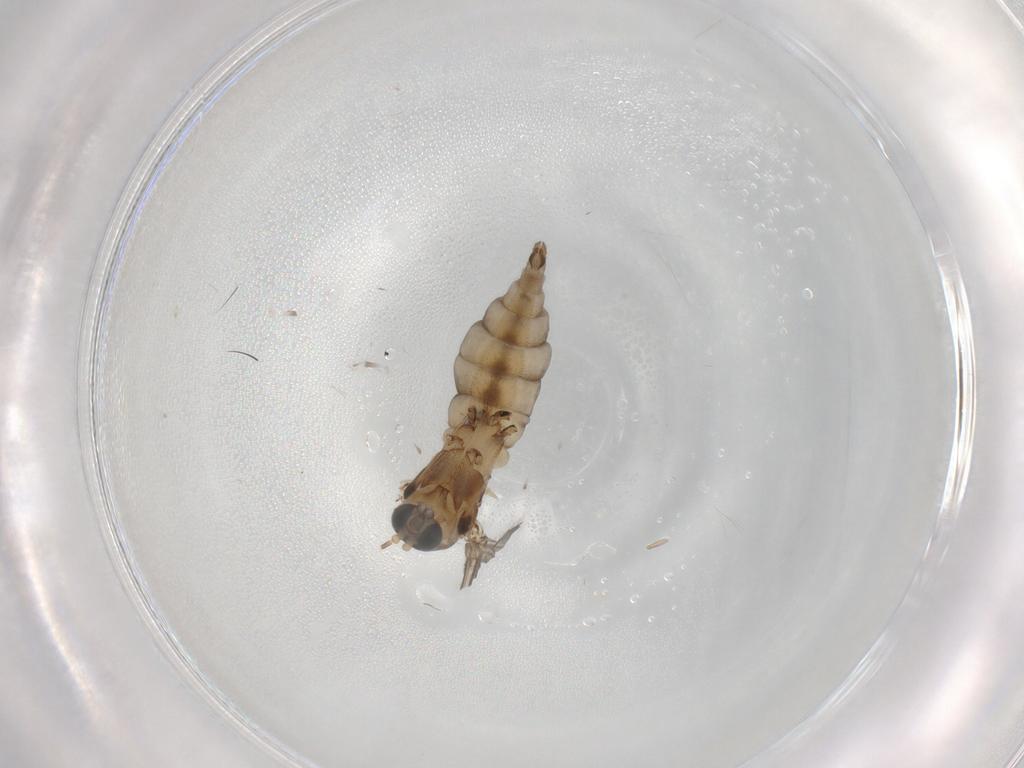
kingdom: Animalia
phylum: Arthropoda
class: Insecta
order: Diptera
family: Sciaridae
